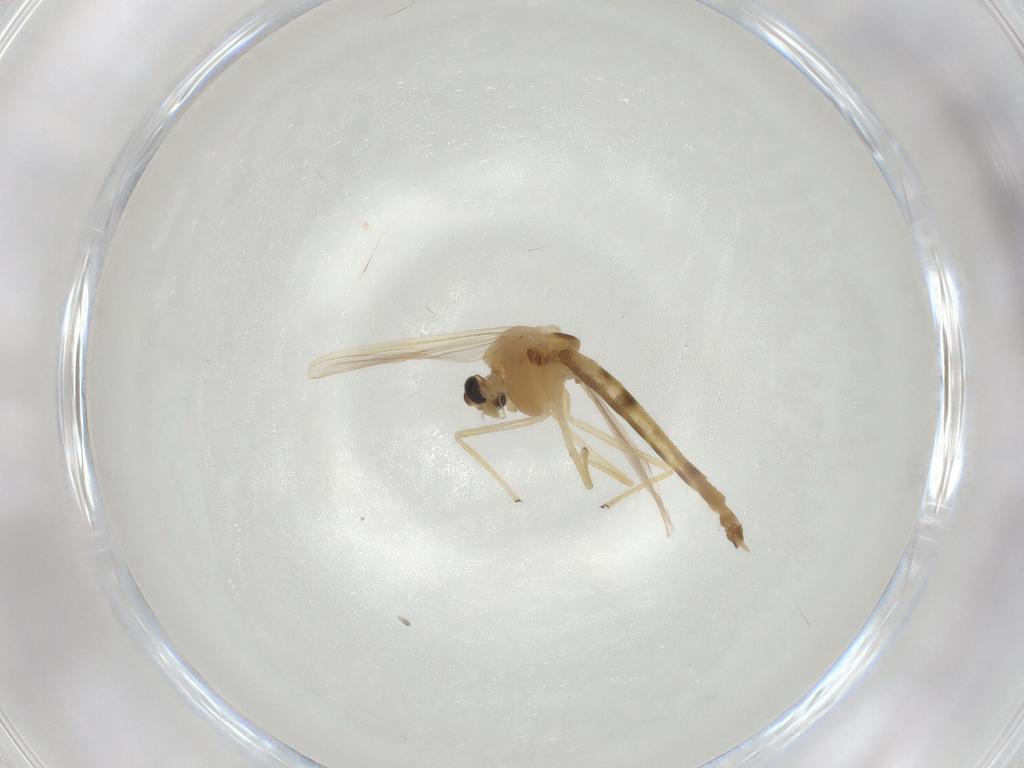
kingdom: Animalia
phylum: Arthropoda
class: Insecta
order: Diptera
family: Chironomidae
